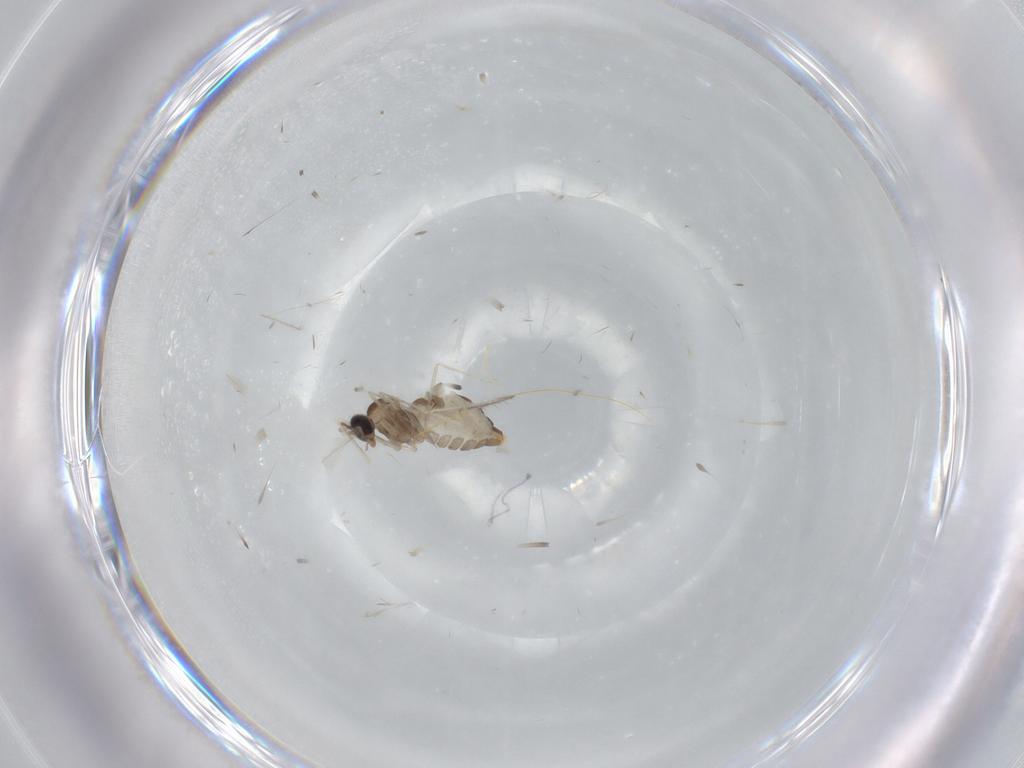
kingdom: Animalia
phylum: Arthropoda
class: Insecta
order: Diptera
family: Cecidomyiidae
